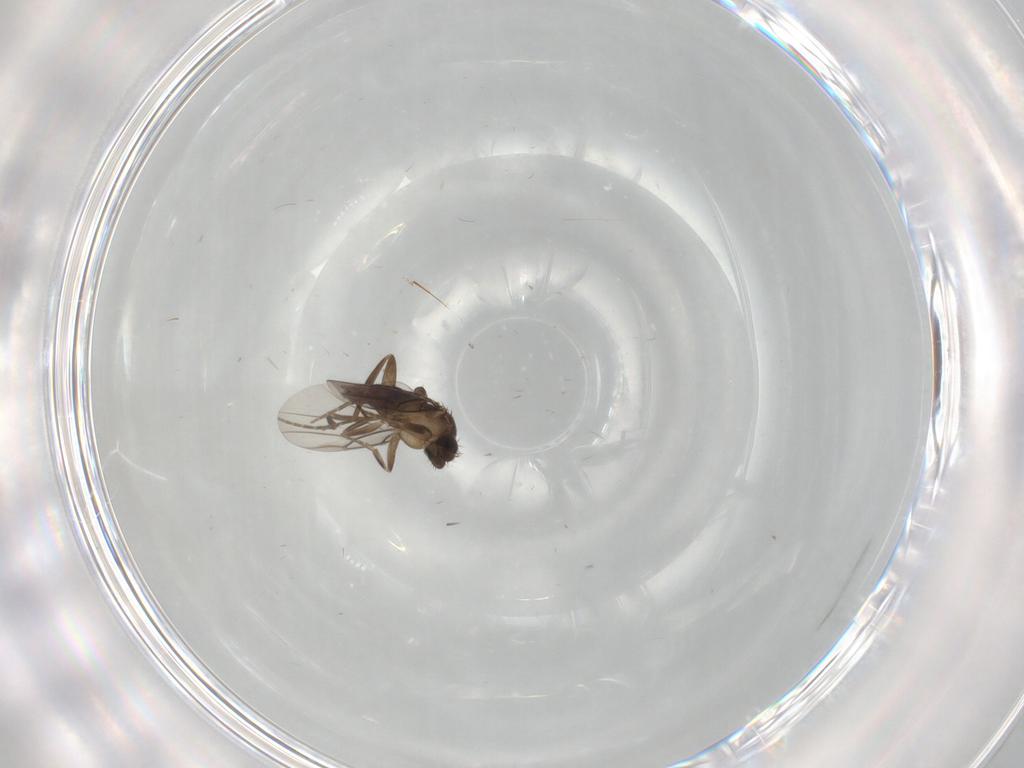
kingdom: Animalia
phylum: Arthropoda
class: Insecta
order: Diptera
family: Cecidomyiidae
